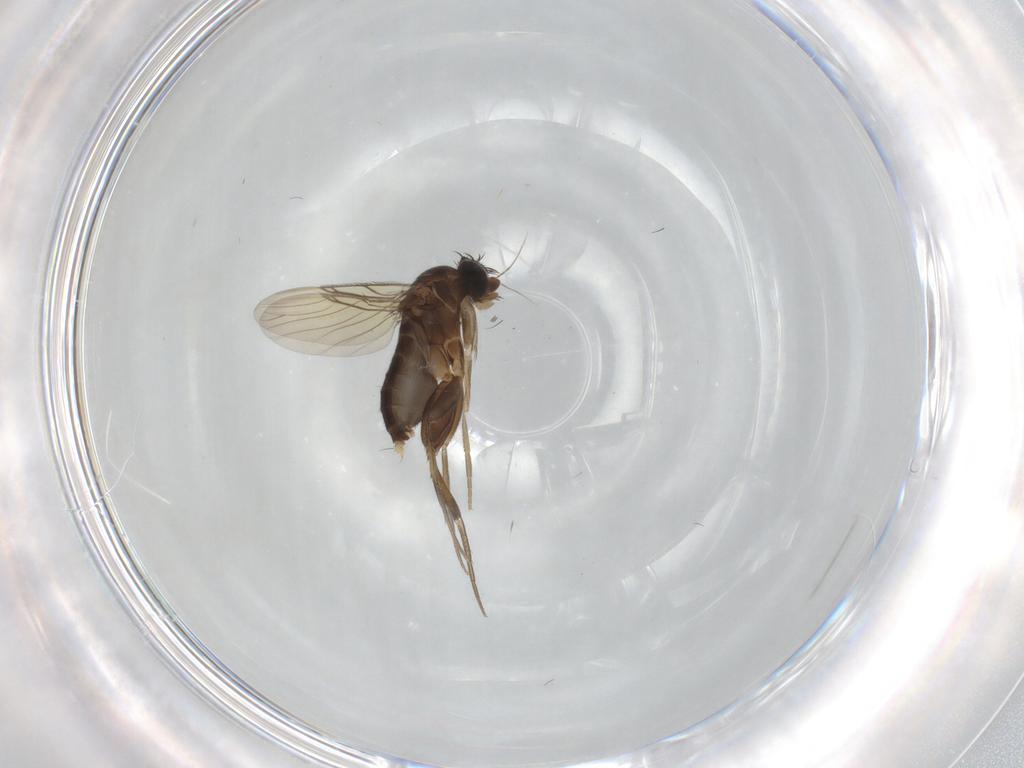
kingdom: Animalia
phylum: Arthropoda
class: Insecta
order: Diptera
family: Phoridae
